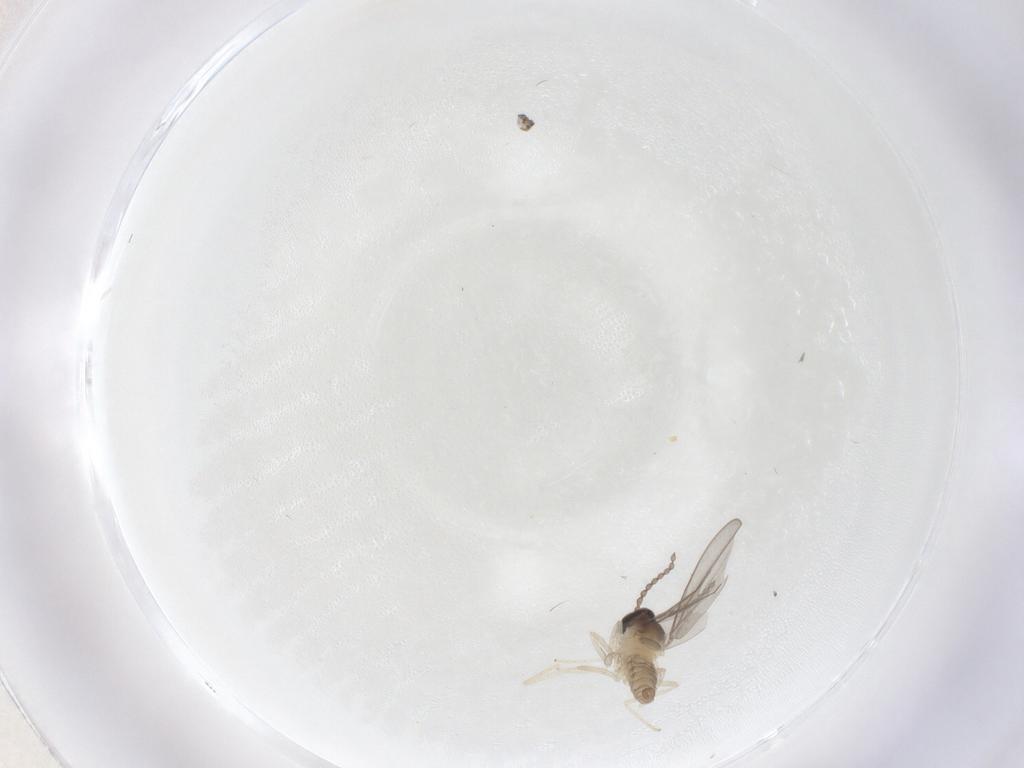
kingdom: Animalia
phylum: Arthropoda
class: Insecta
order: Diptera
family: Cecidomyiidae
